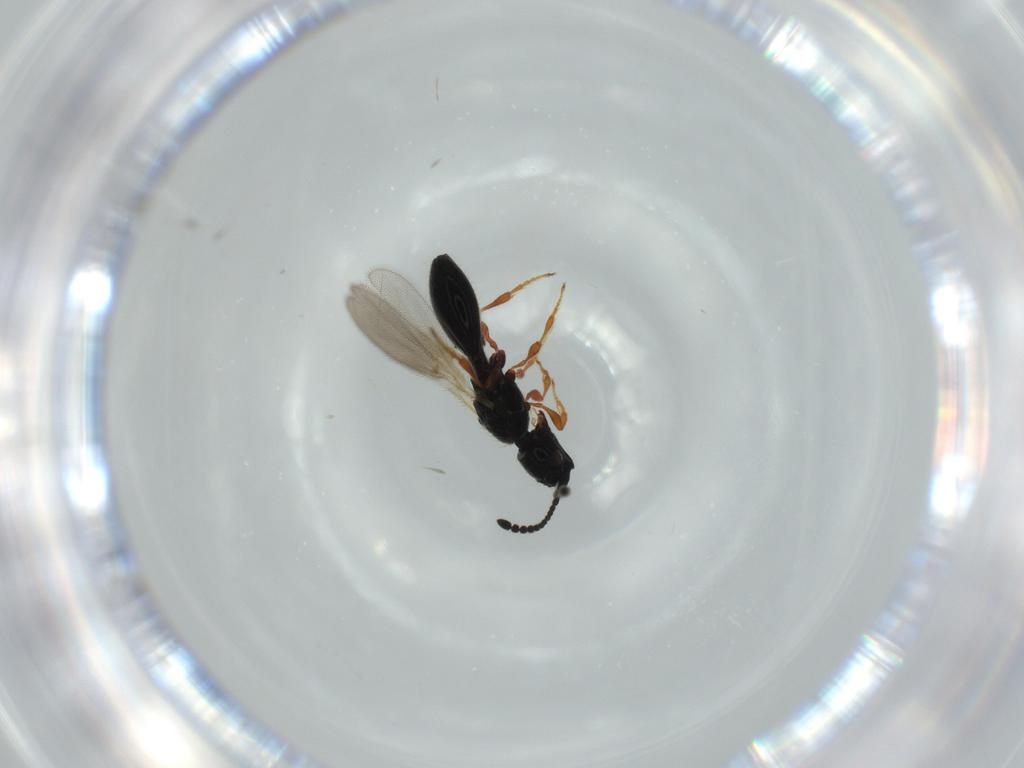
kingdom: Animalia
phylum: Arthropoda
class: Insecta
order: Hymenoptera
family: Diapriidae
